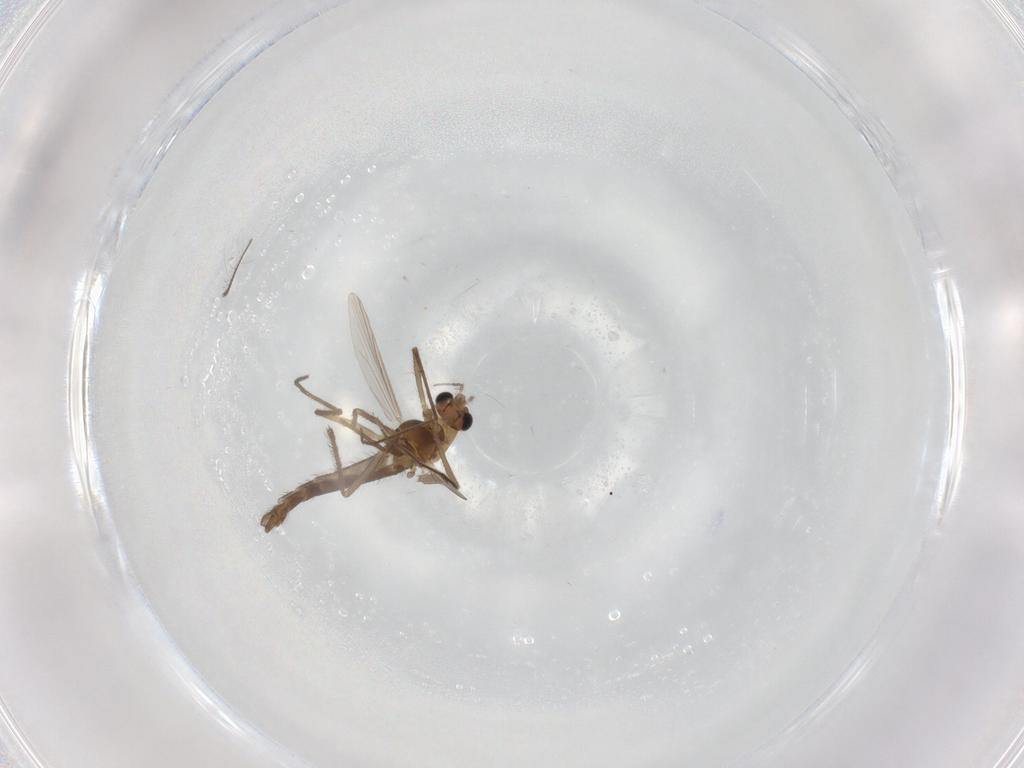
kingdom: Animalia
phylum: Arthropoda
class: Insecta
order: Diptera
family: Chironomidae
